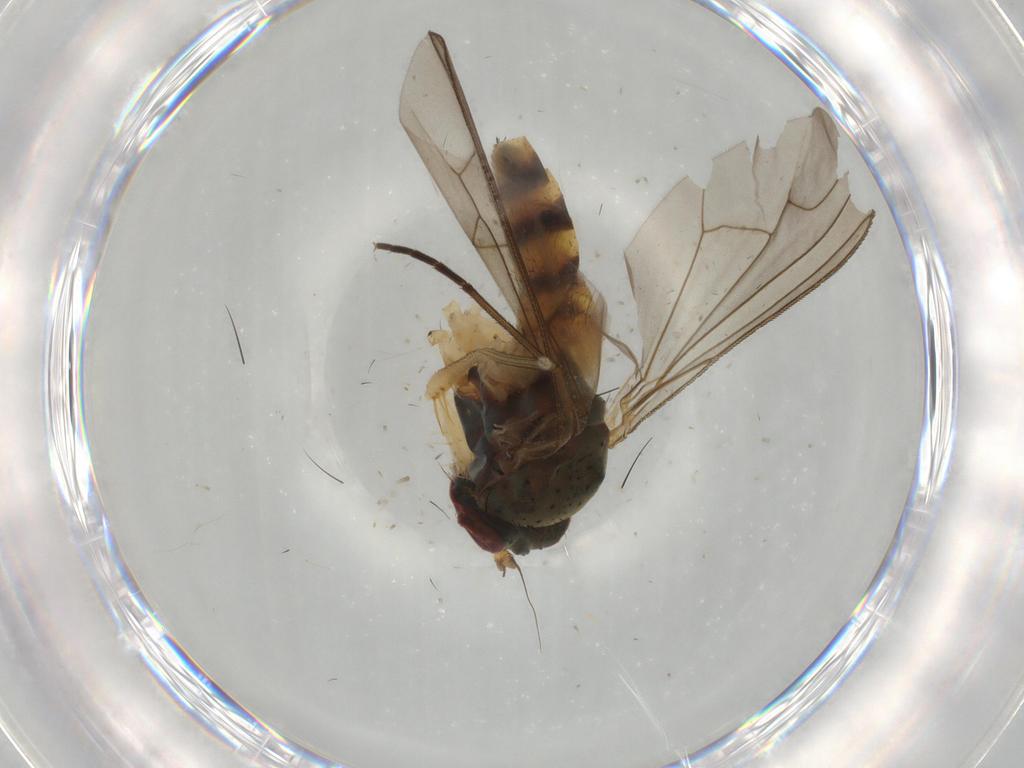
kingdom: Animalia
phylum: Arthropoda
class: Insecta
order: Diptera
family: Dolichopodidae
